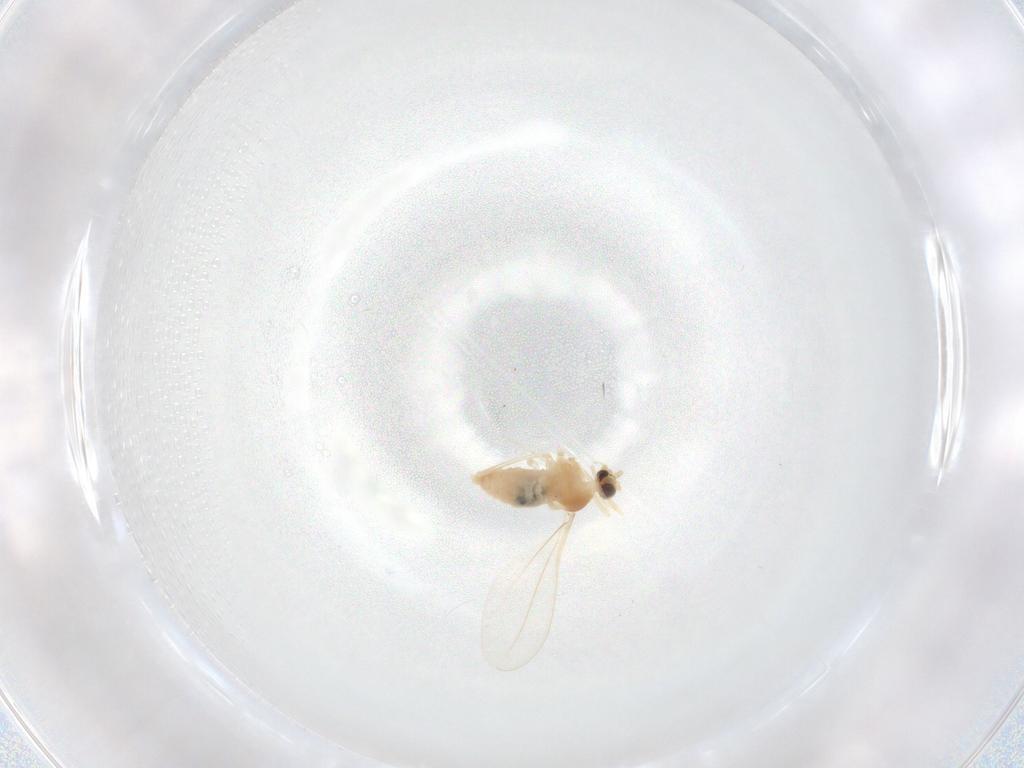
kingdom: Animalia
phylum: Arthropoda
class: Insecta
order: Diptera
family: Cecidomyiidae
